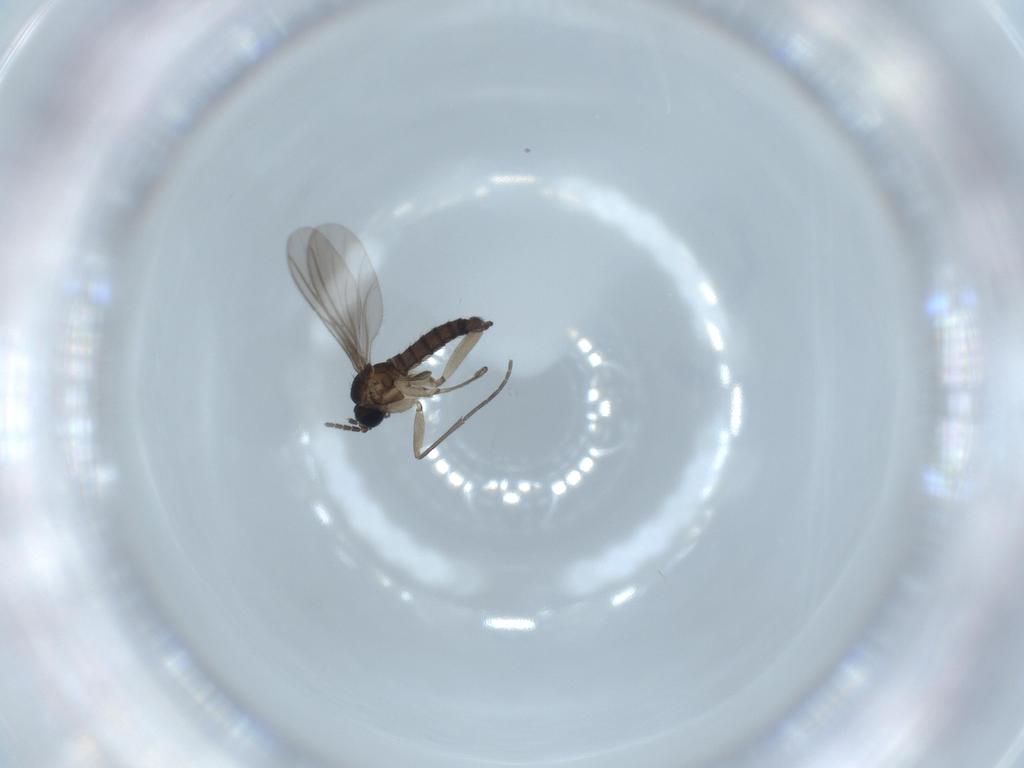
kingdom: Animalia
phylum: Arthropoda
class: Insecta
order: Diptera
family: Sciaridae
